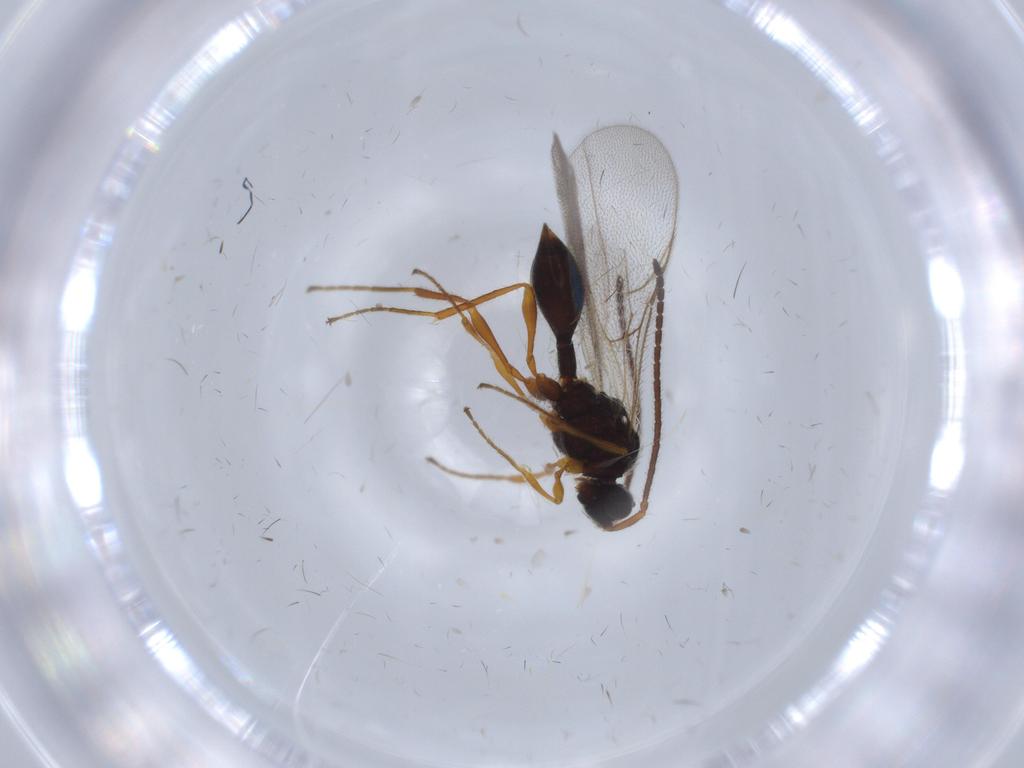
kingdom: Animalia
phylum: Arthropoda
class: Insecta
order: Hymenoptera
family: Diapriidae
